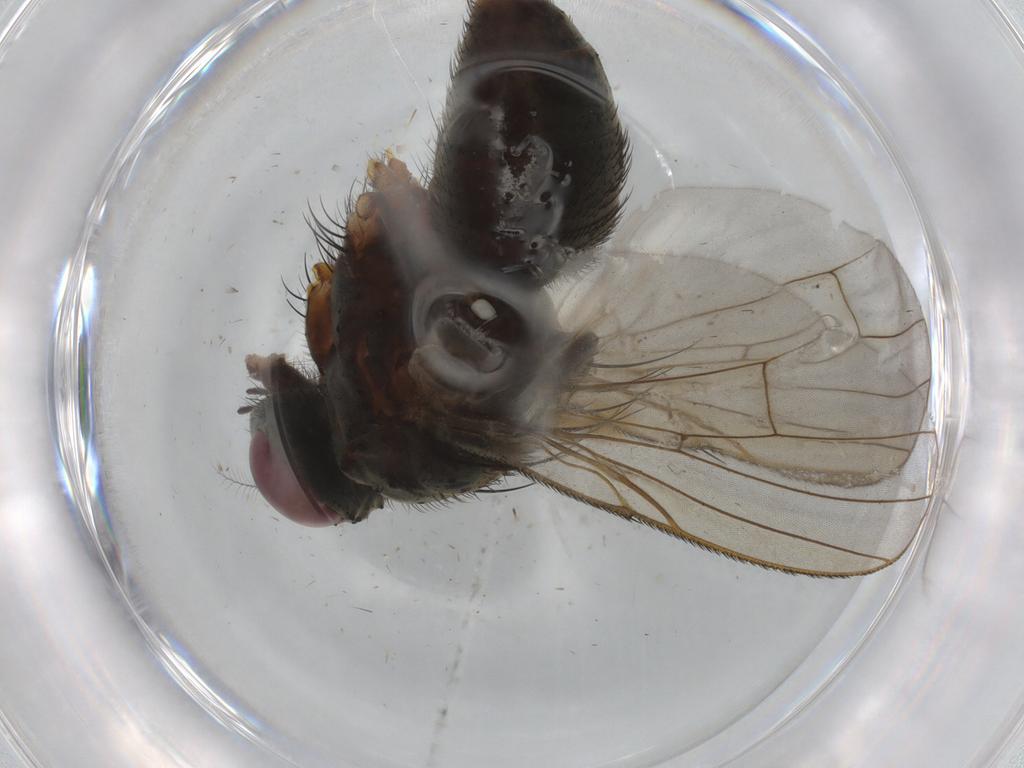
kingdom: Animalia
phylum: Arthropoda
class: Insecta
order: Diptera
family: Muscidae
